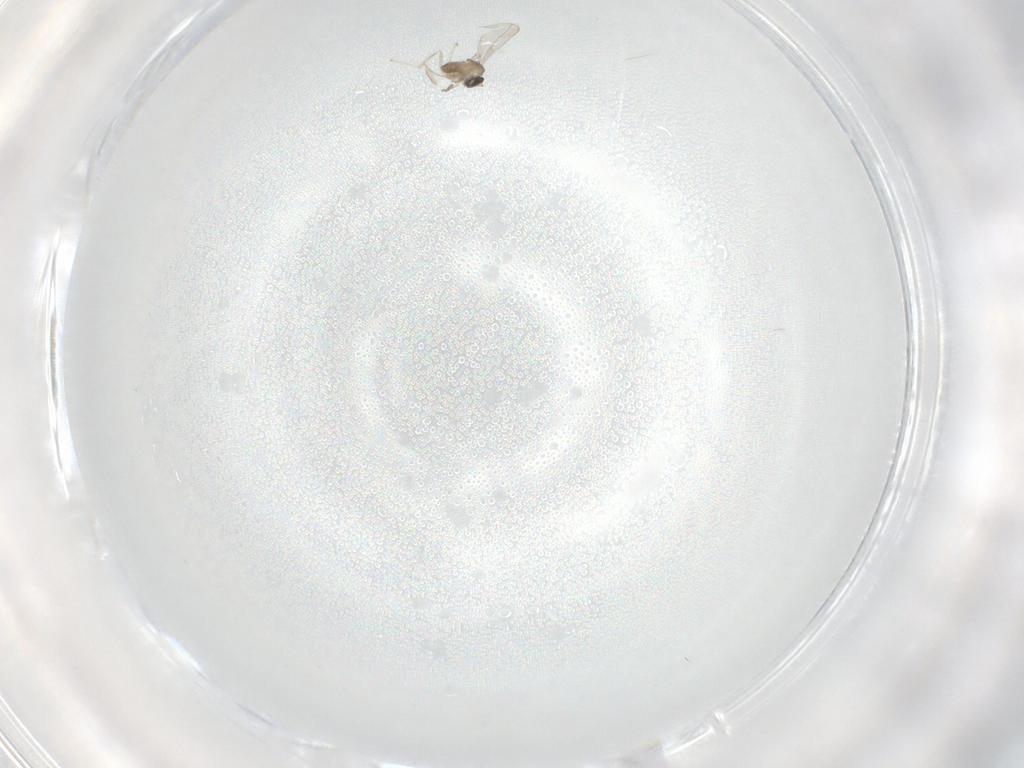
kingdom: Animalia
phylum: Arthropoda
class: Insecta
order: Diptera
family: Cecidomyiidae
